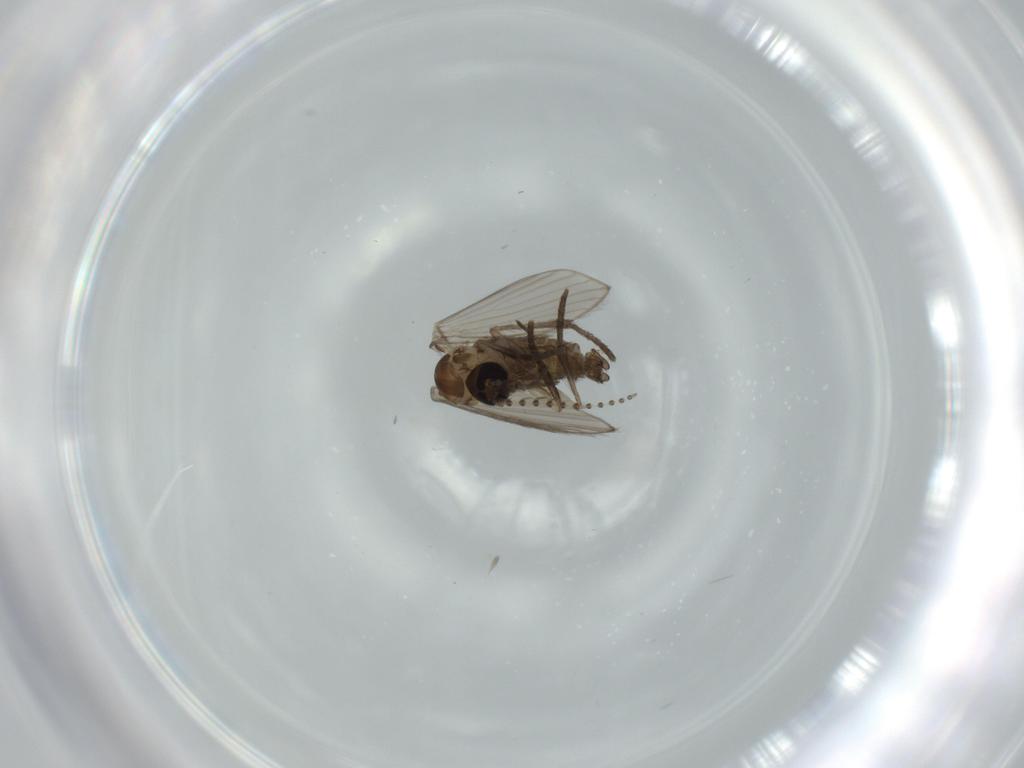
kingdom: Animalia
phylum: Arthropoda
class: Insecta
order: Diptera
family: Psychodidae
